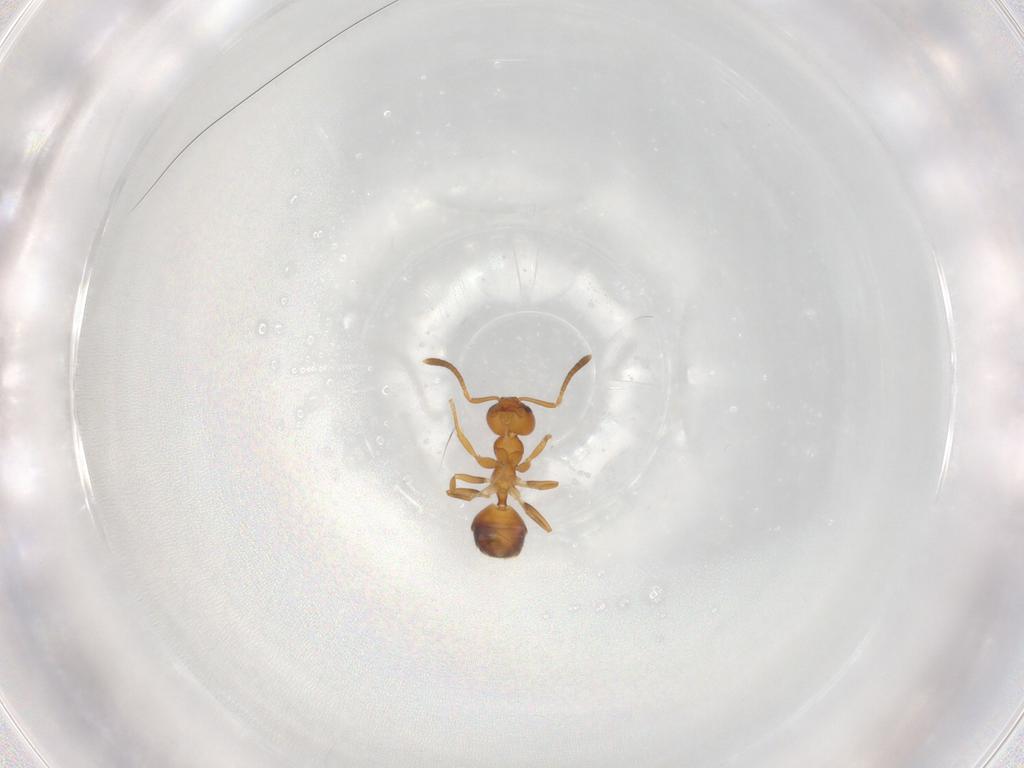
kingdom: Animalia
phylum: Arthropoda
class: Insecta
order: Hymenoptera
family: Formicidae
